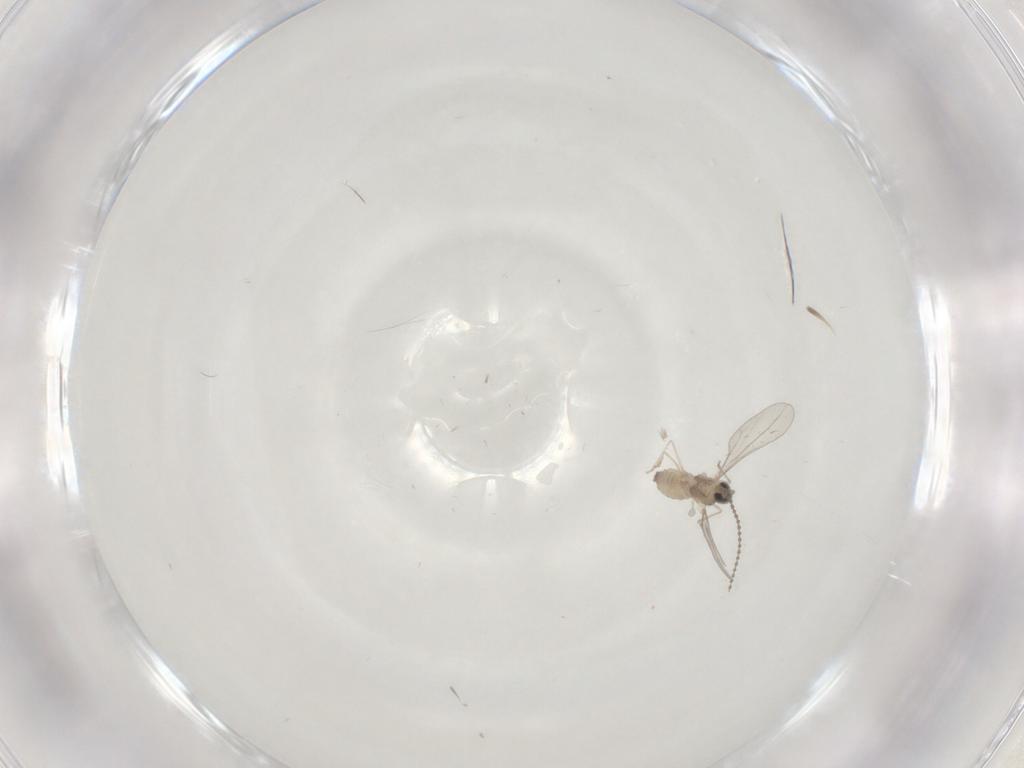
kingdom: Animalia
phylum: Arthropoda
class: Insecta
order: Diptera
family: Cecidomyiidae
